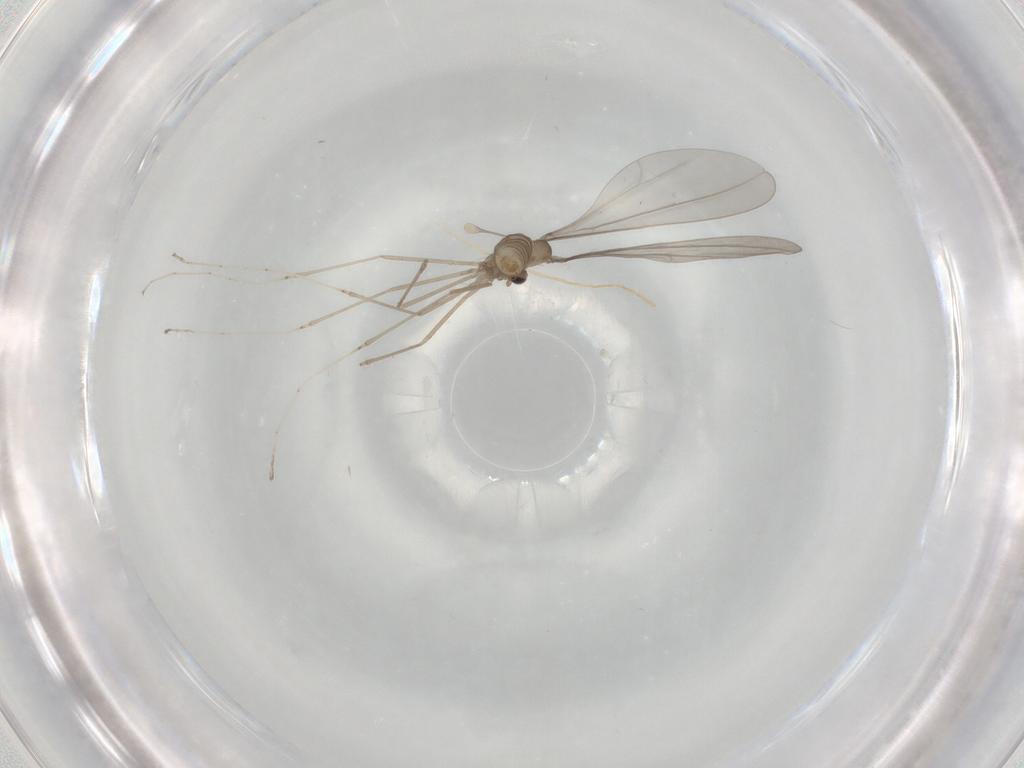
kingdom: Animalia
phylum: Arthropoda
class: Insecta
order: Diptera
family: Cecidomyiidae
